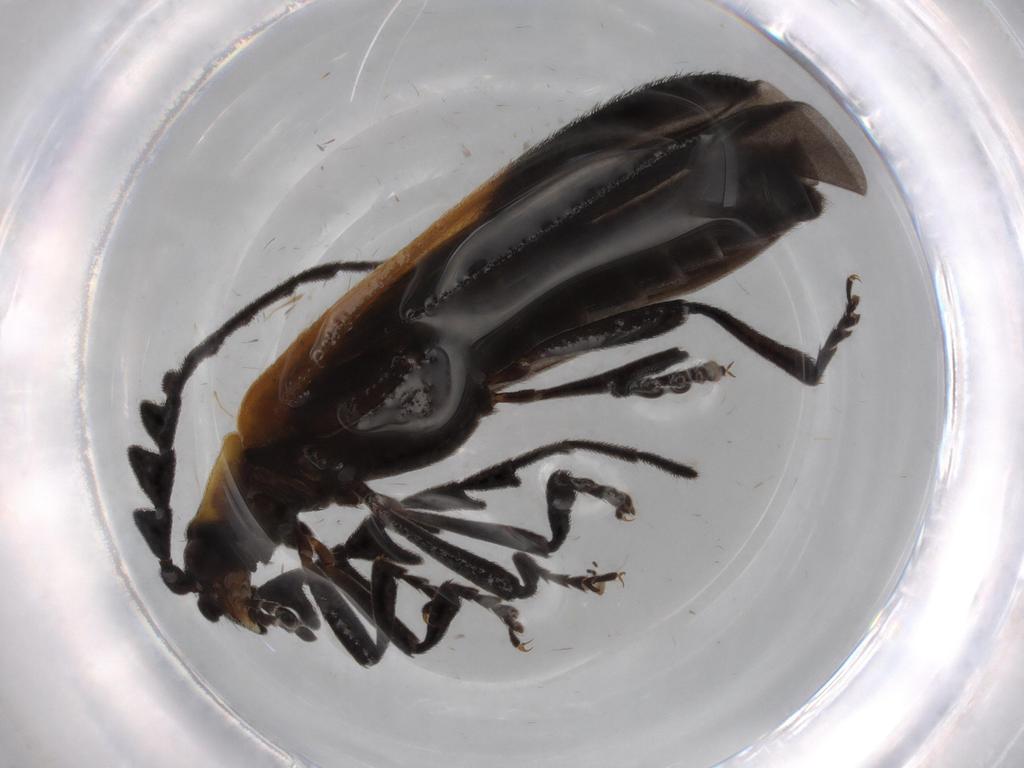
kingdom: Animalia
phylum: Arthropoda
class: Insecta
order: Coleoptera
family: Lycidae
